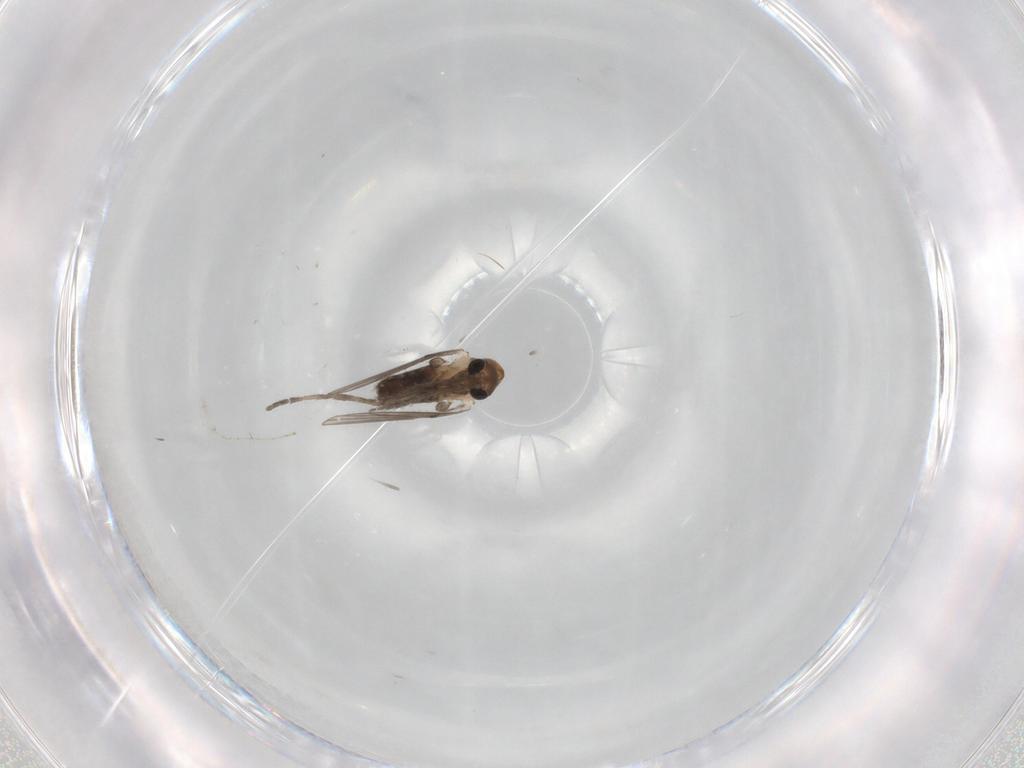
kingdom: Animalia
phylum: Arthropoda
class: Insecta
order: Diptera
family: Psychodidae
